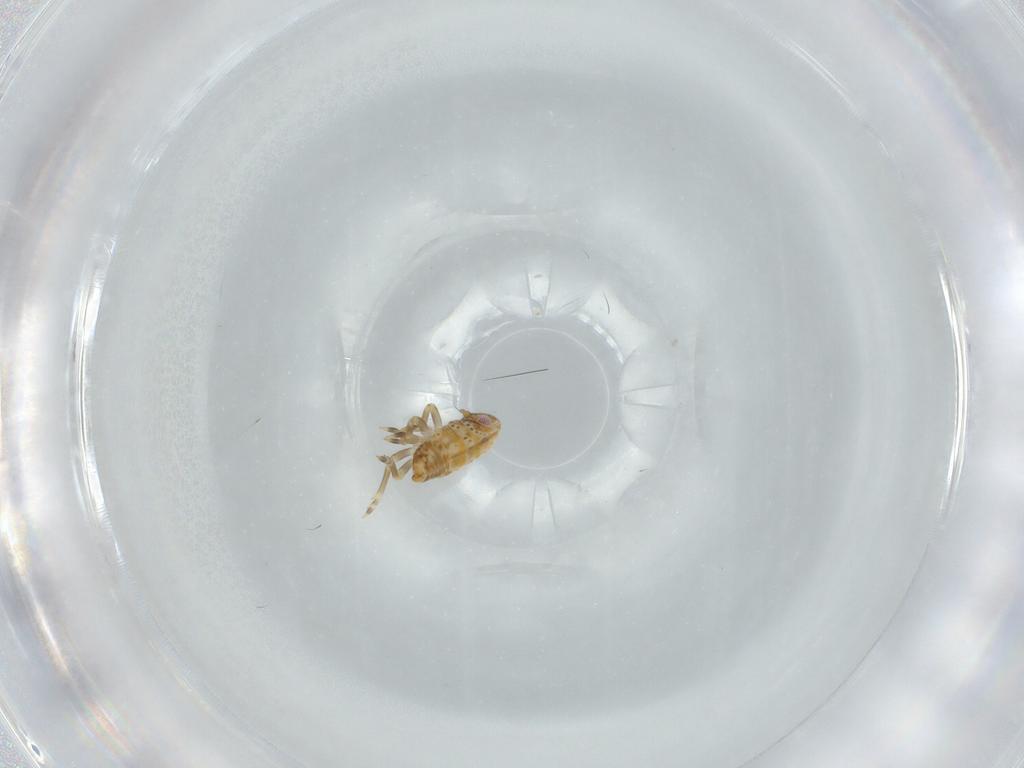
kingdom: Animalia
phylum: Arthropoda
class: Insecta
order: Hemiptera
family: Flatidae
